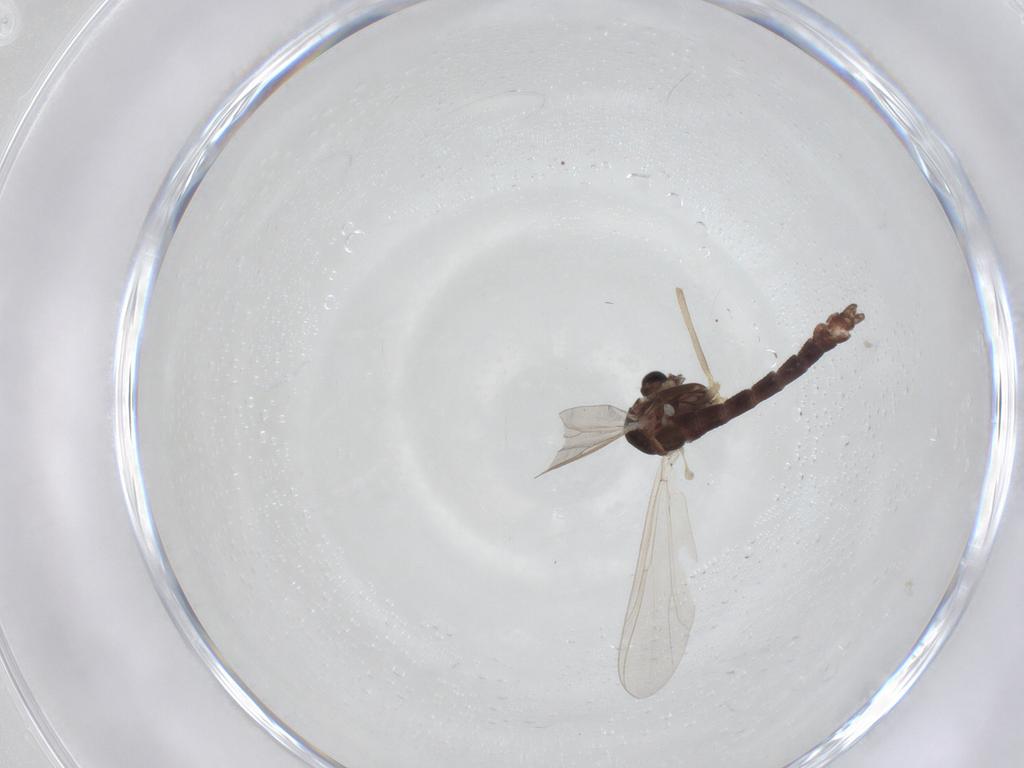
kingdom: Animalia
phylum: Arthropoda
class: Insecta
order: Diptera
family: Chironomidae
